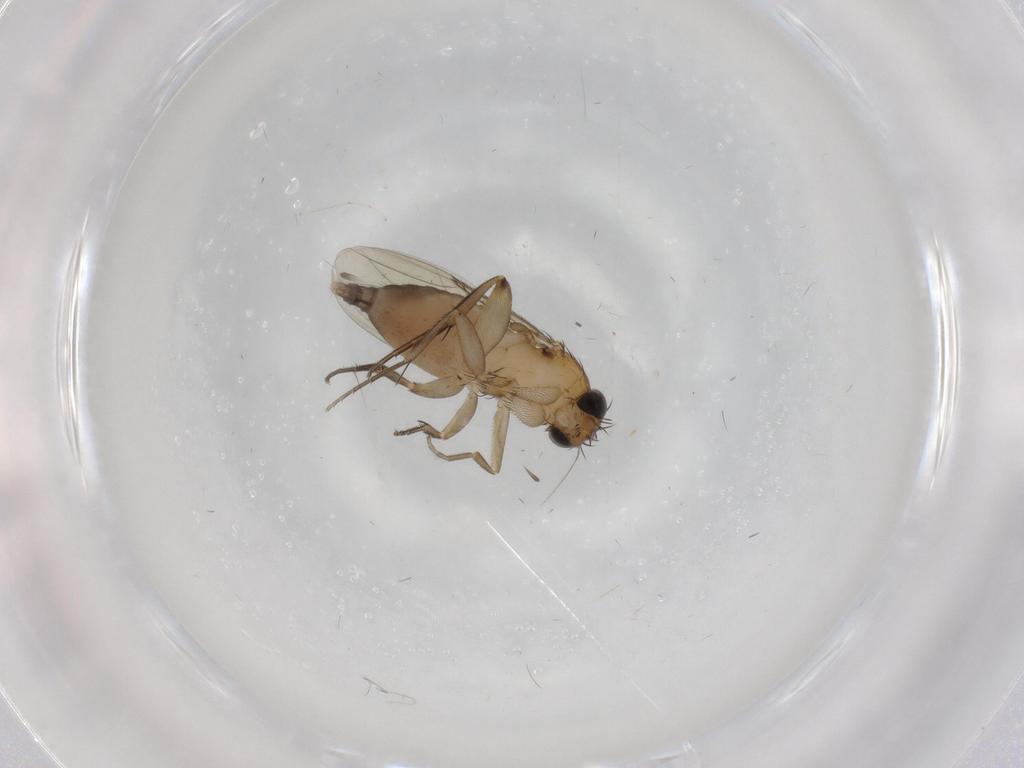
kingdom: Animalia
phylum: Arthropoda
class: Insecta
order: Diptera
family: Phoridae
